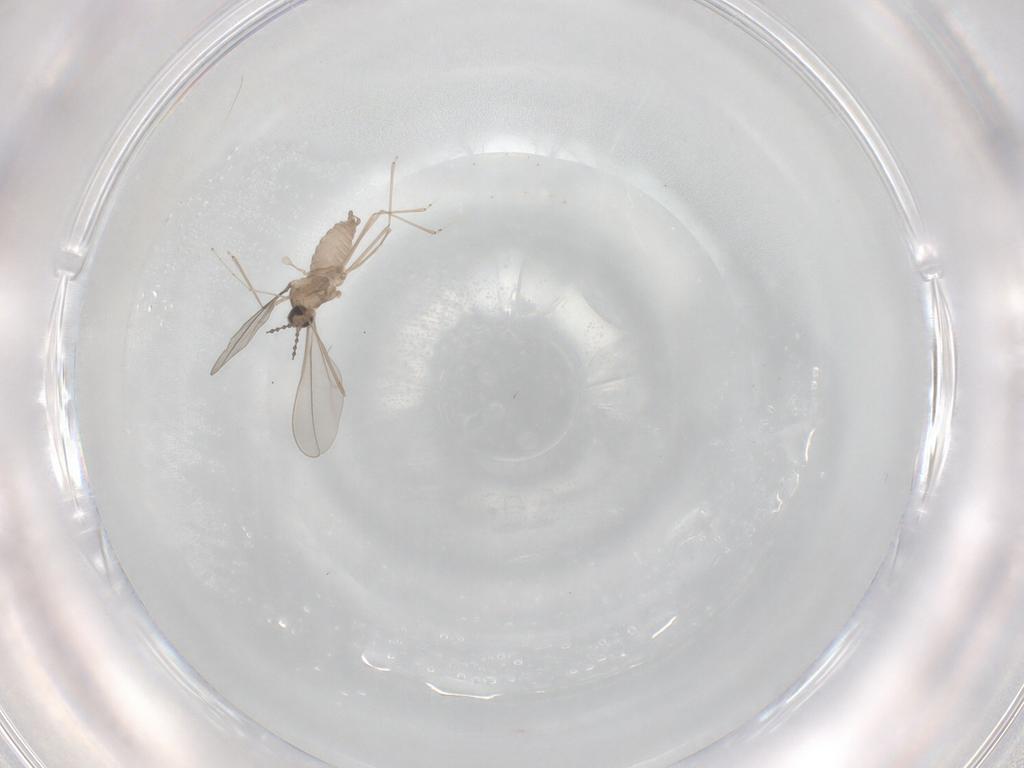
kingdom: Animalia
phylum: Arthropoda
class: Insecta
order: Diptera
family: Cecidomyiidae
